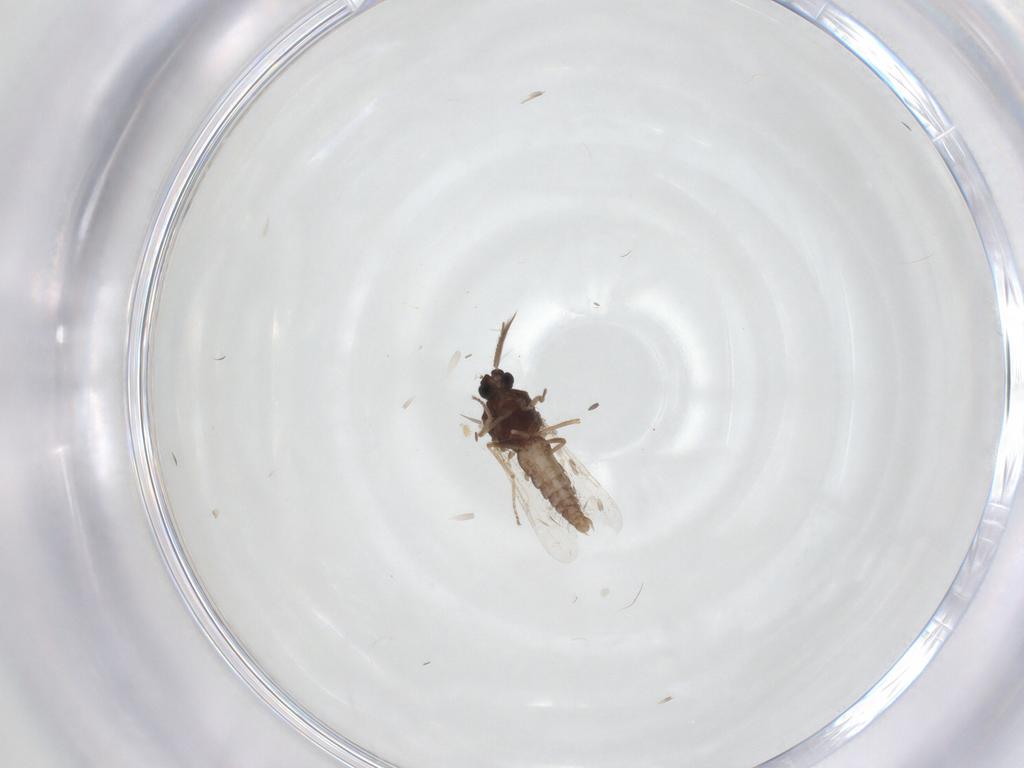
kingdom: Animalia
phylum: Arthropoda
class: Insecta
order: Diptera
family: Ceratopogonidae
